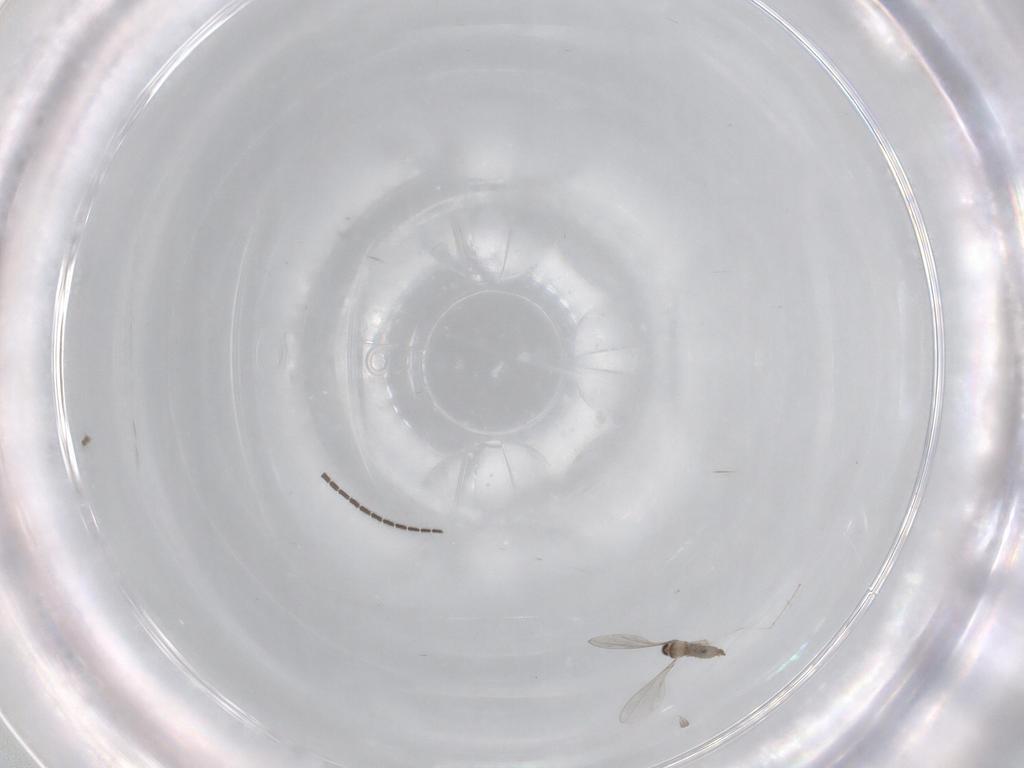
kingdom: Animalia
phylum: Arthropoda
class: Insecta
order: Diptera
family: Cecidomyiidae
